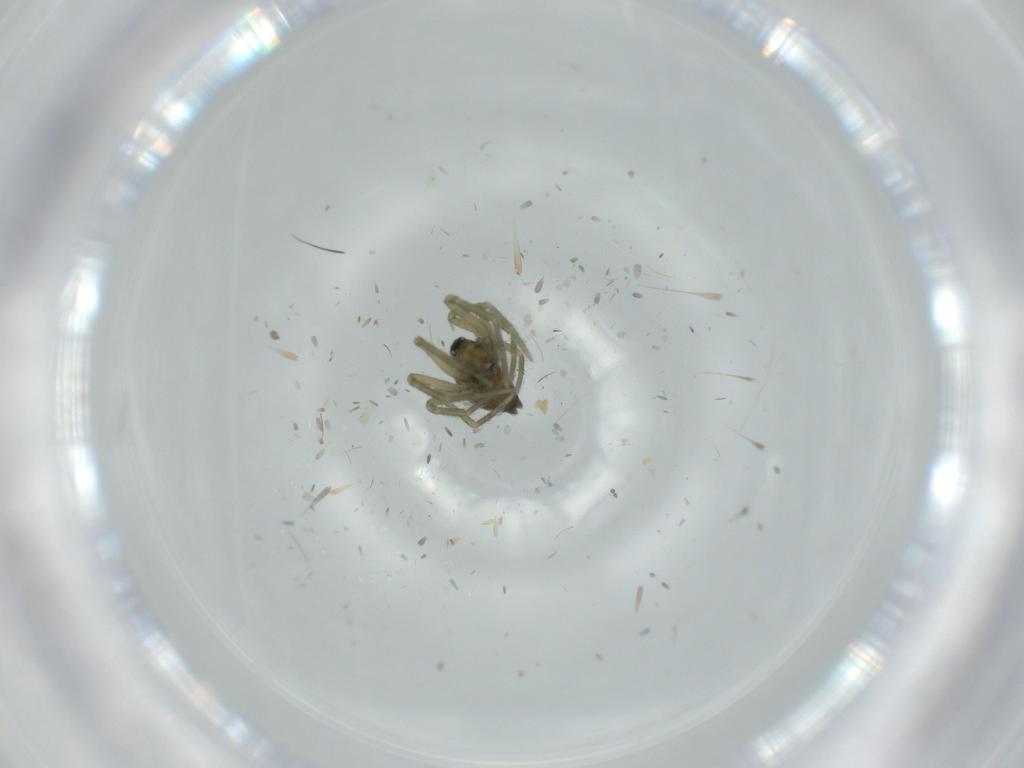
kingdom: Animalia
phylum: Arthropoda
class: Arachnida
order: Araneae
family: Linyphiidae
